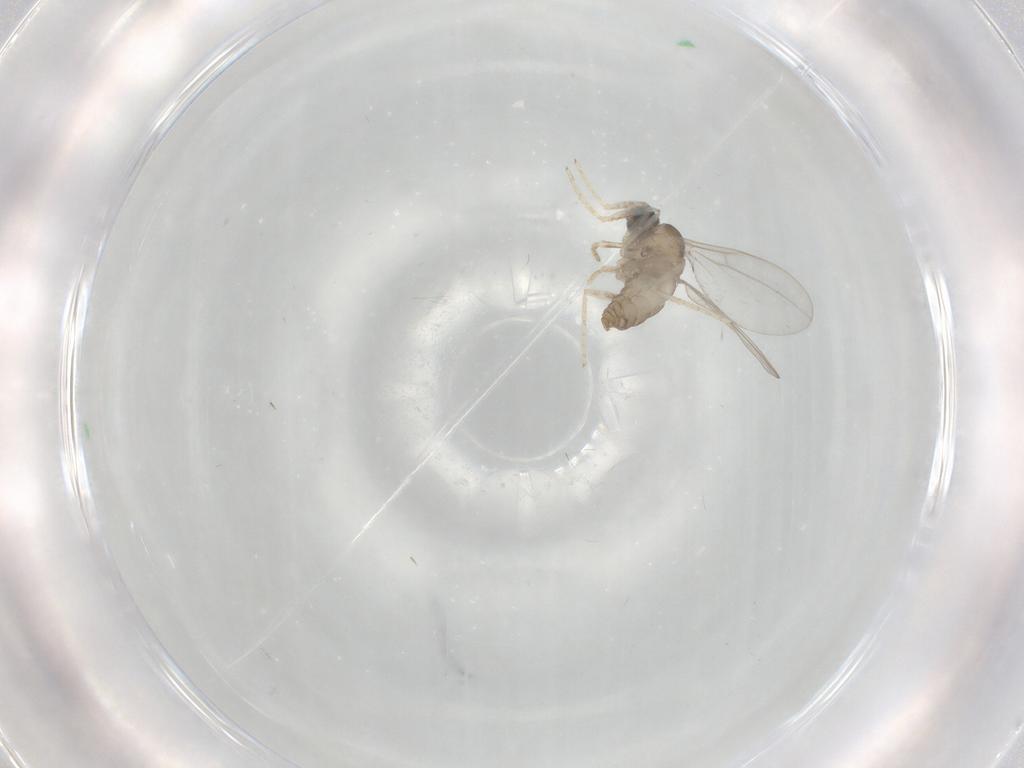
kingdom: Animalia
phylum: Arthropoda
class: Insecta
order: Diptera
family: Cecidomyiidae
